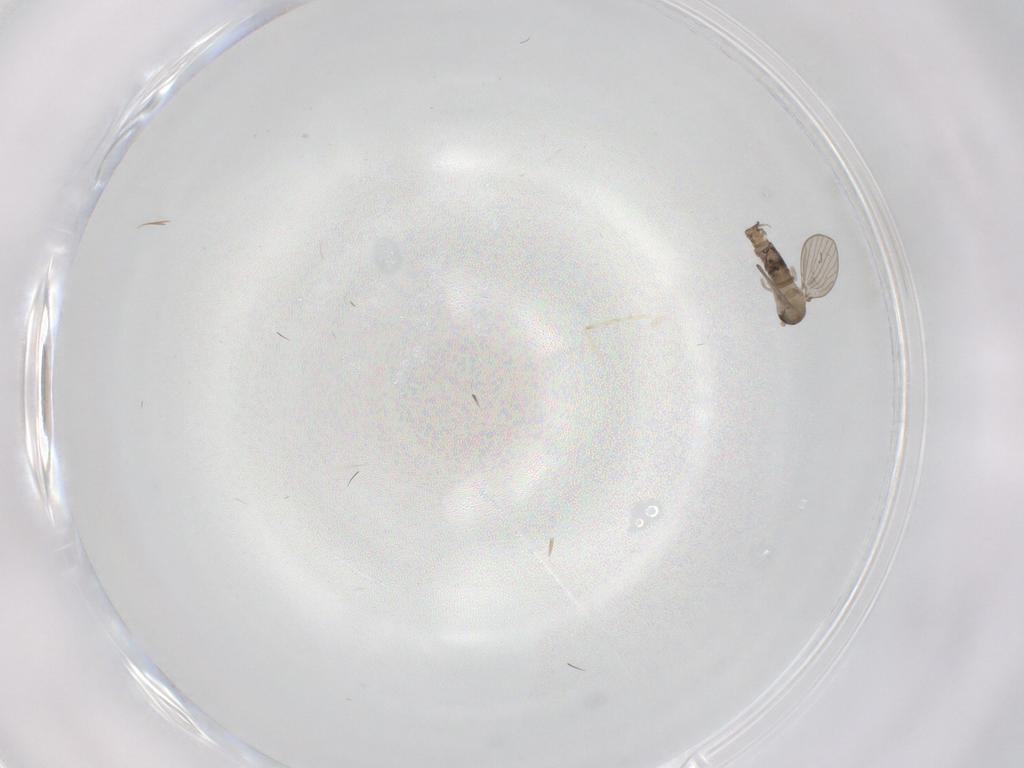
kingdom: Animalia
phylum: Arthropoda
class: Insecta
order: Diptera
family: Psychodidae
